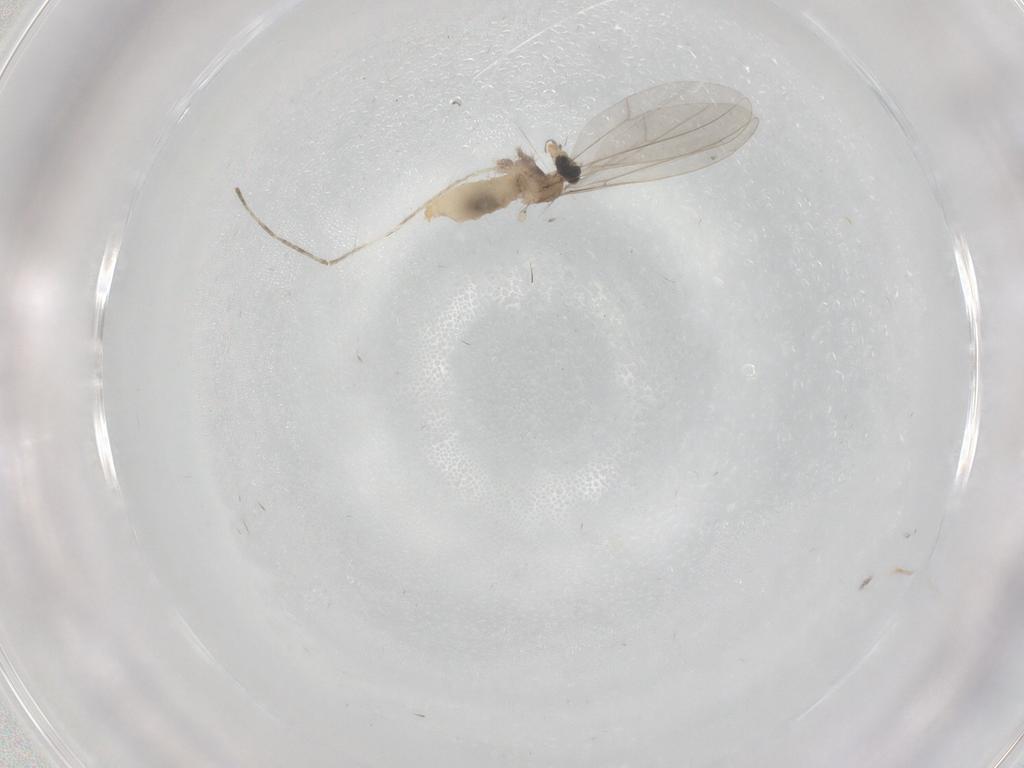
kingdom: Animalia
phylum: Arthropoda
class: Insecta
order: Diptera
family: Cecidomyiidae
